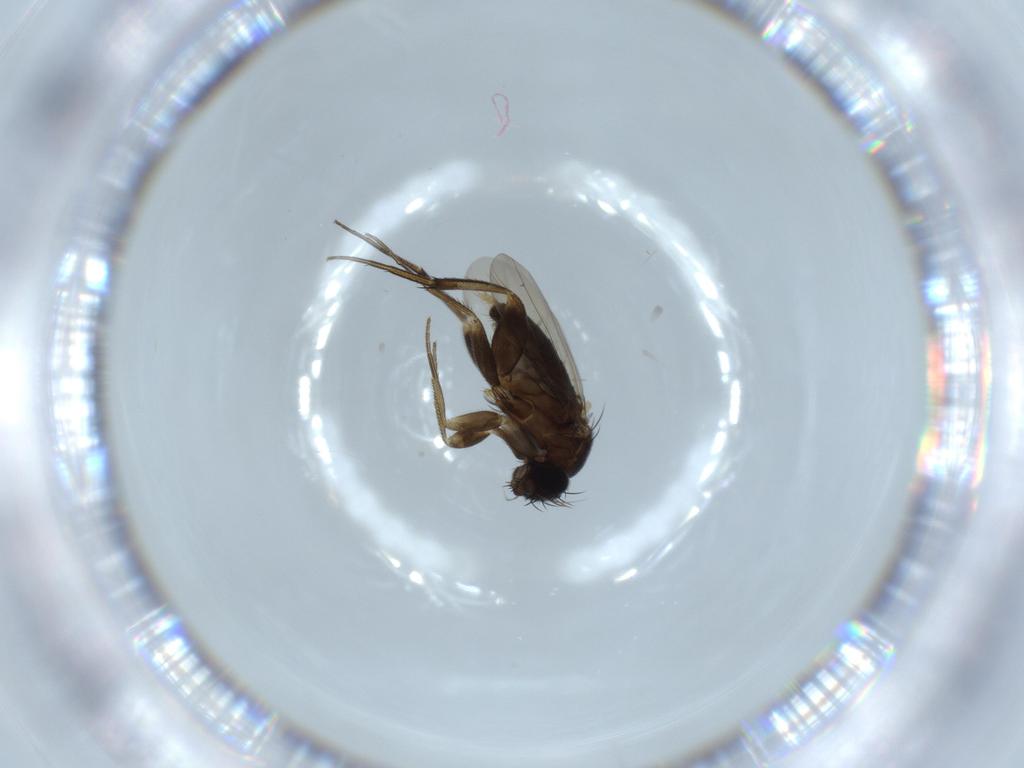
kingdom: Animalia
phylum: Arthropoda
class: Insecta
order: Diptera
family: Phoridae
